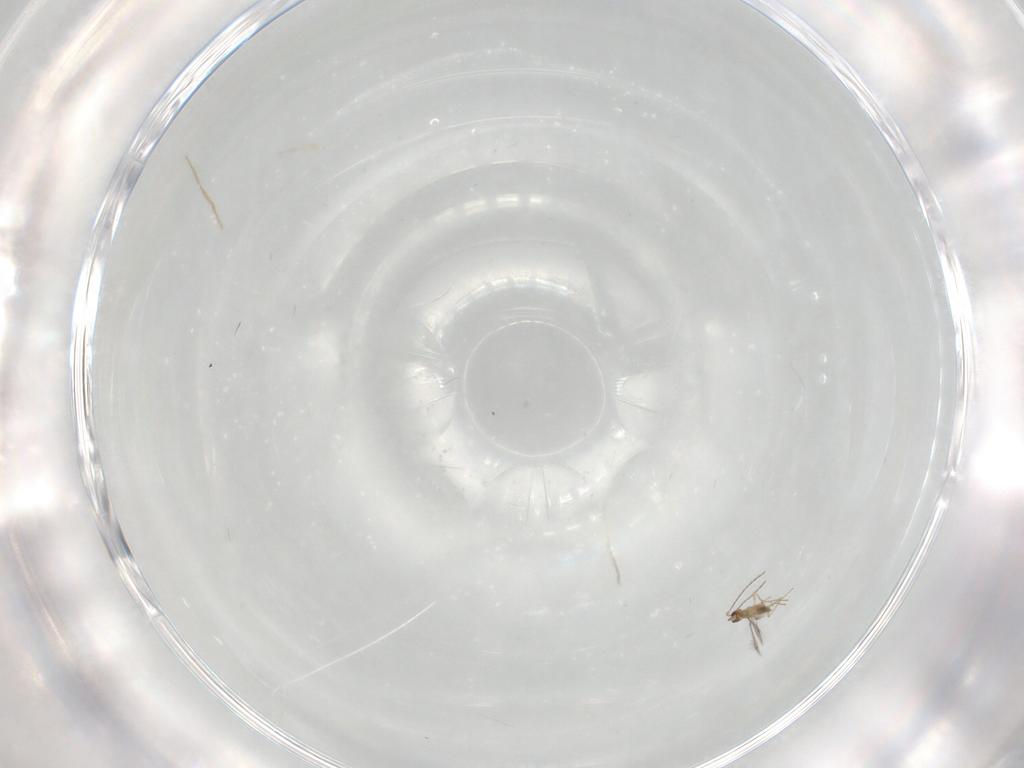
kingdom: Animalia
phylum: Arthropoda
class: Insecta
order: Hymenoptera
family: Mymaridae
